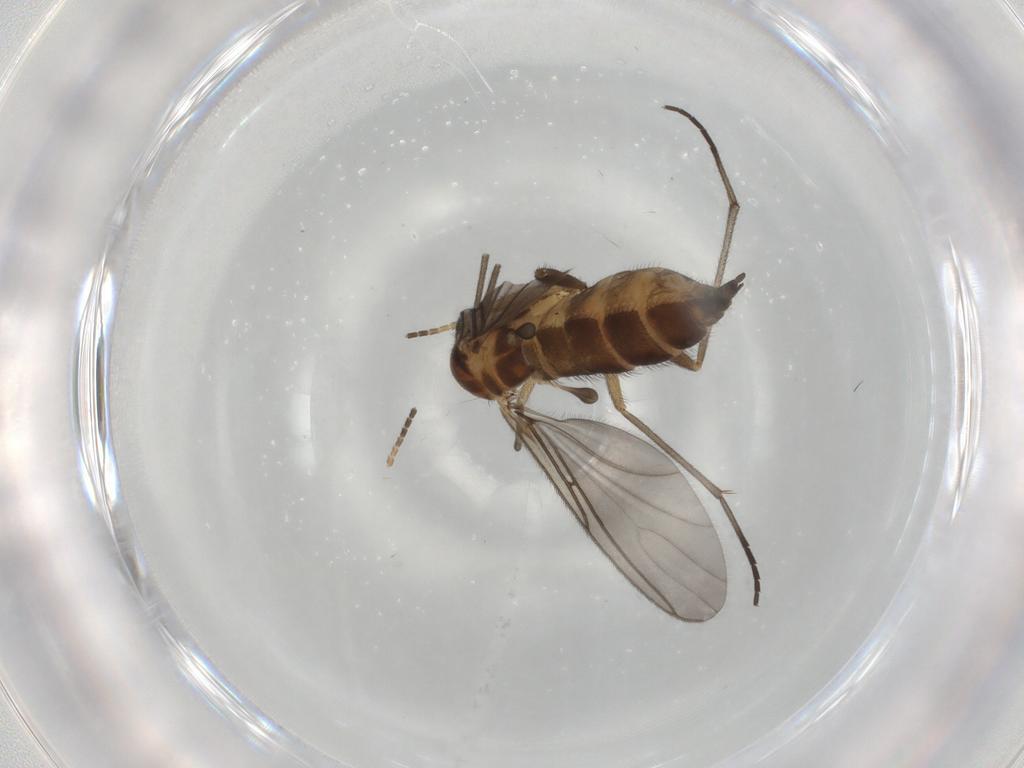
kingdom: Animalia
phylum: Arthropoda
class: Insecta
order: Diptera
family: Sciaridae
